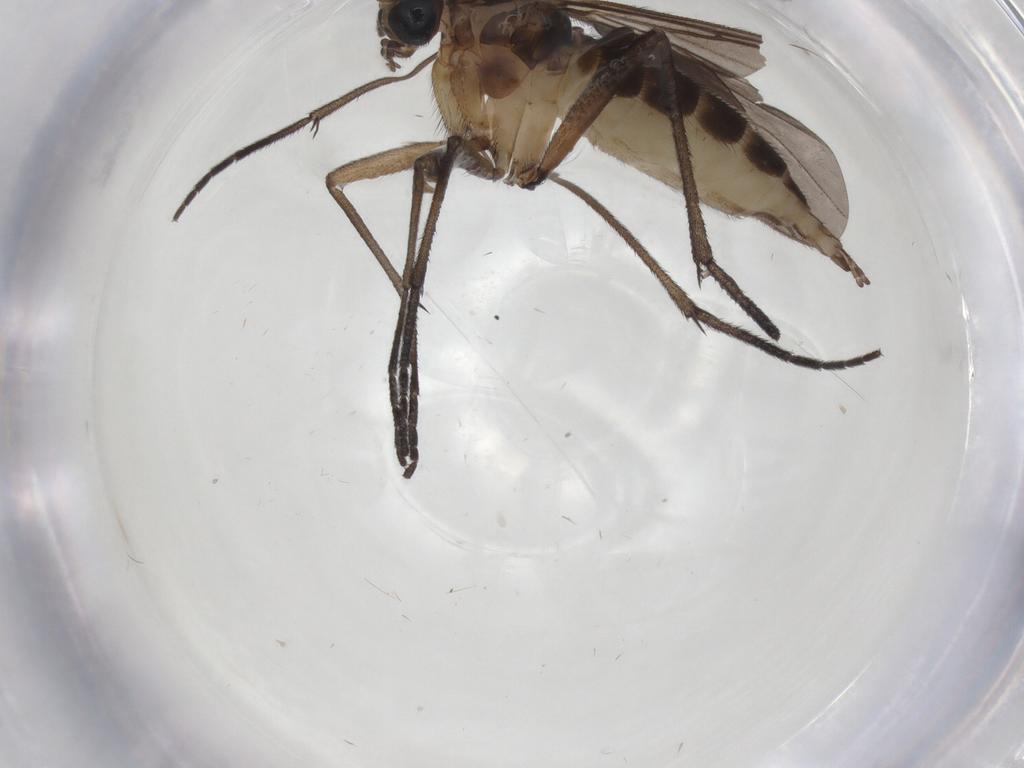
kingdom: Animalia
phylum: Arthropoda
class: Insecta
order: Diptera
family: Sciaridae
